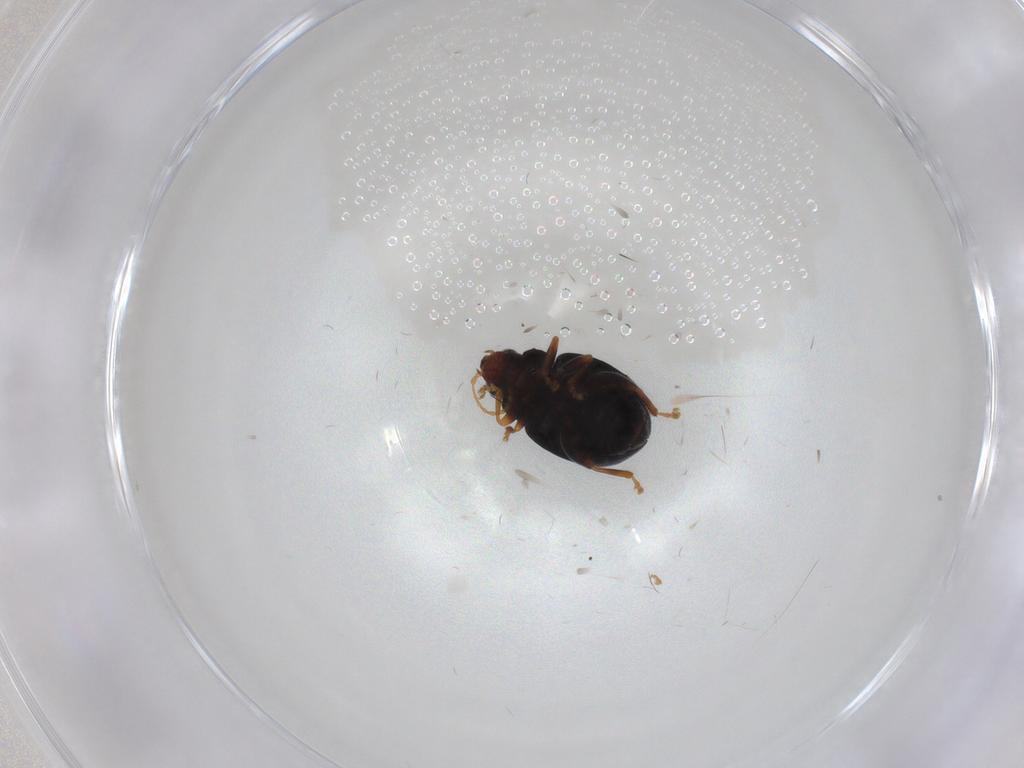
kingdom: Animalia
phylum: Arthropoda
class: Insecta
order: Coleoptera
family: Chrysomelidae
